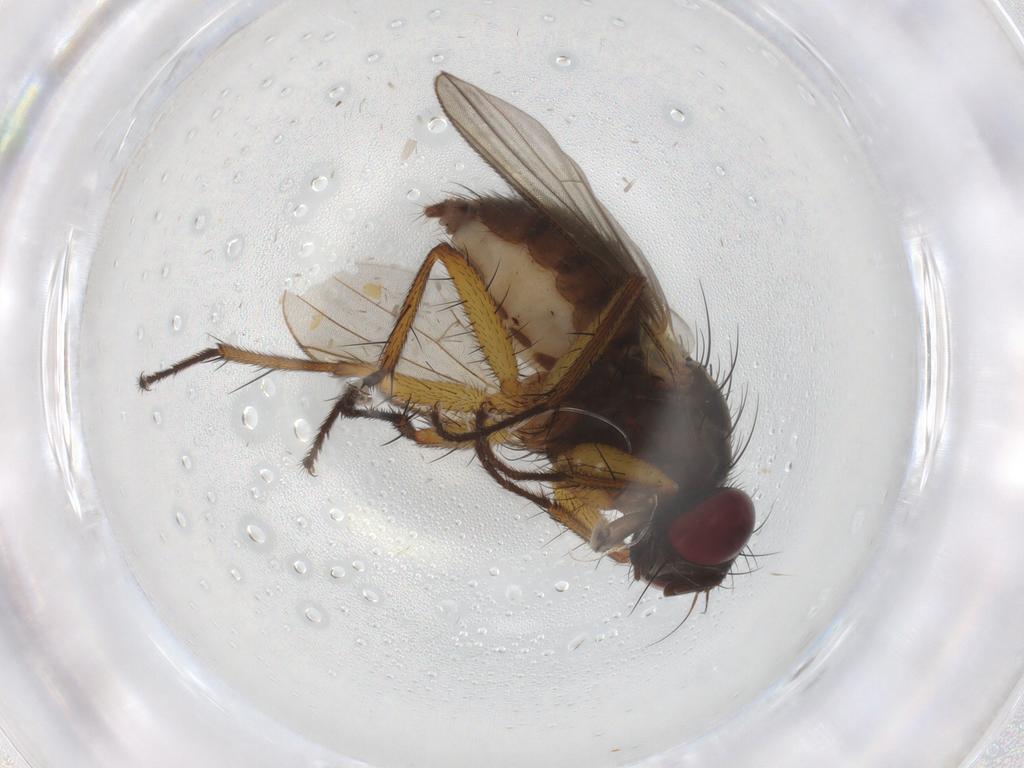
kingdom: Animalia
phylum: Arthropoda
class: Insecta
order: Diptera
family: Muscidae
